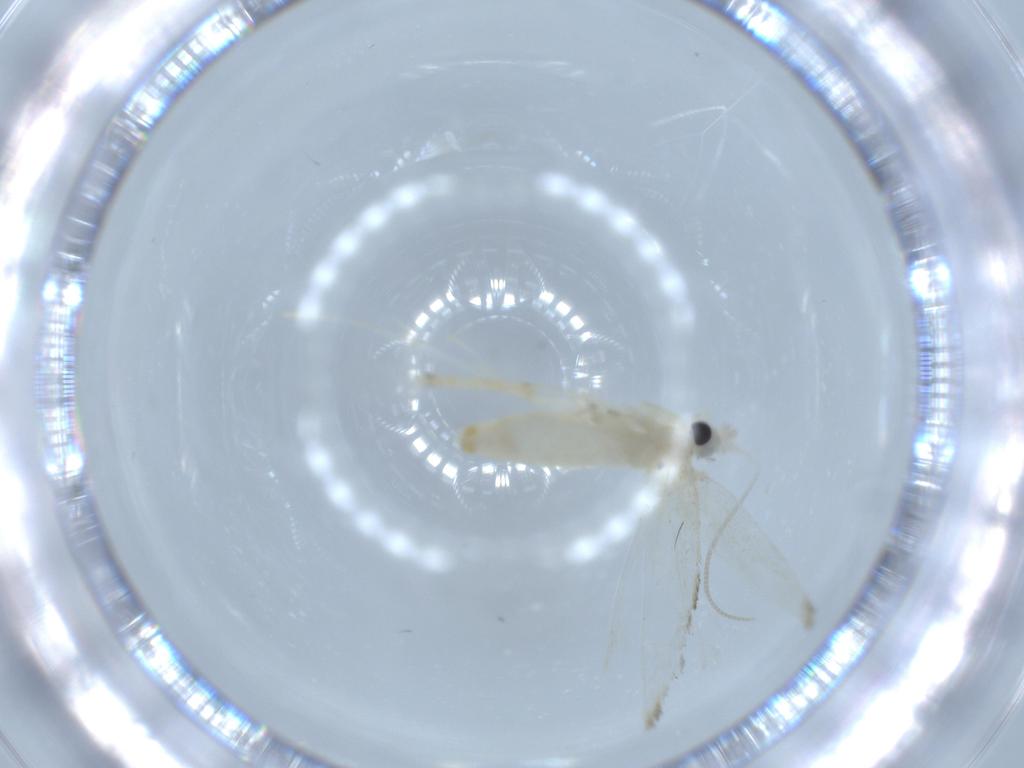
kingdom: Animalia
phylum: Arthropoda
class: Insecta
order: Lepidoptera
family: Tineidae
